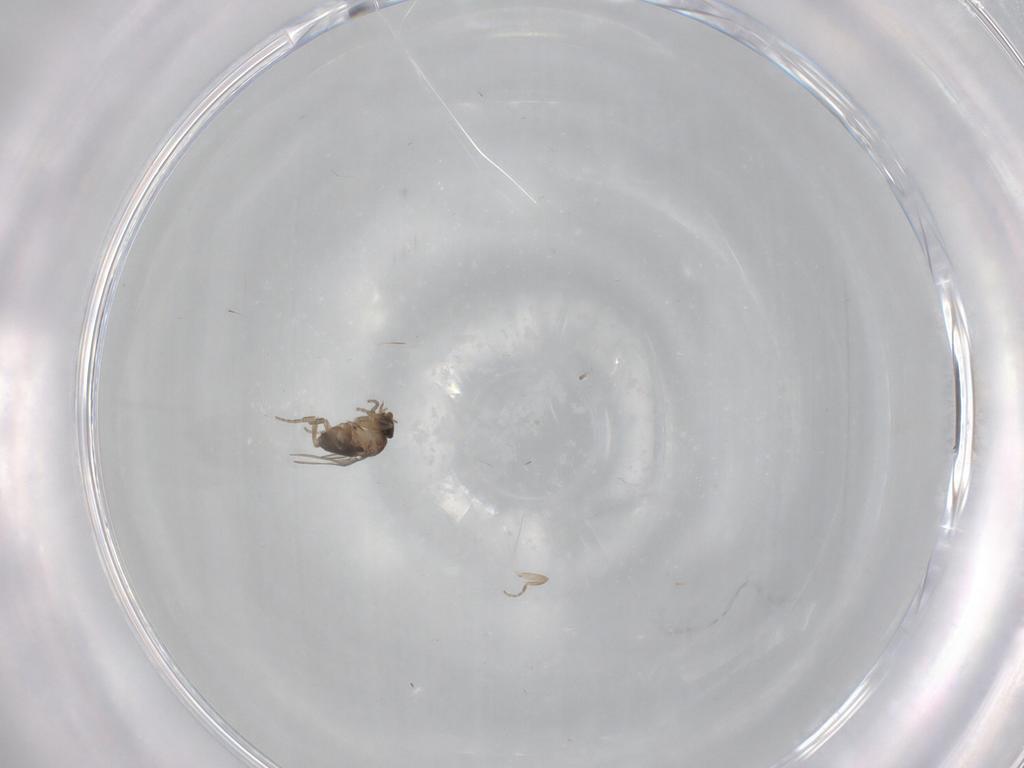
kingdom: Animalia
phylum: Arthropoda
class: Insecta
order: Diptera
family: Phoridae
